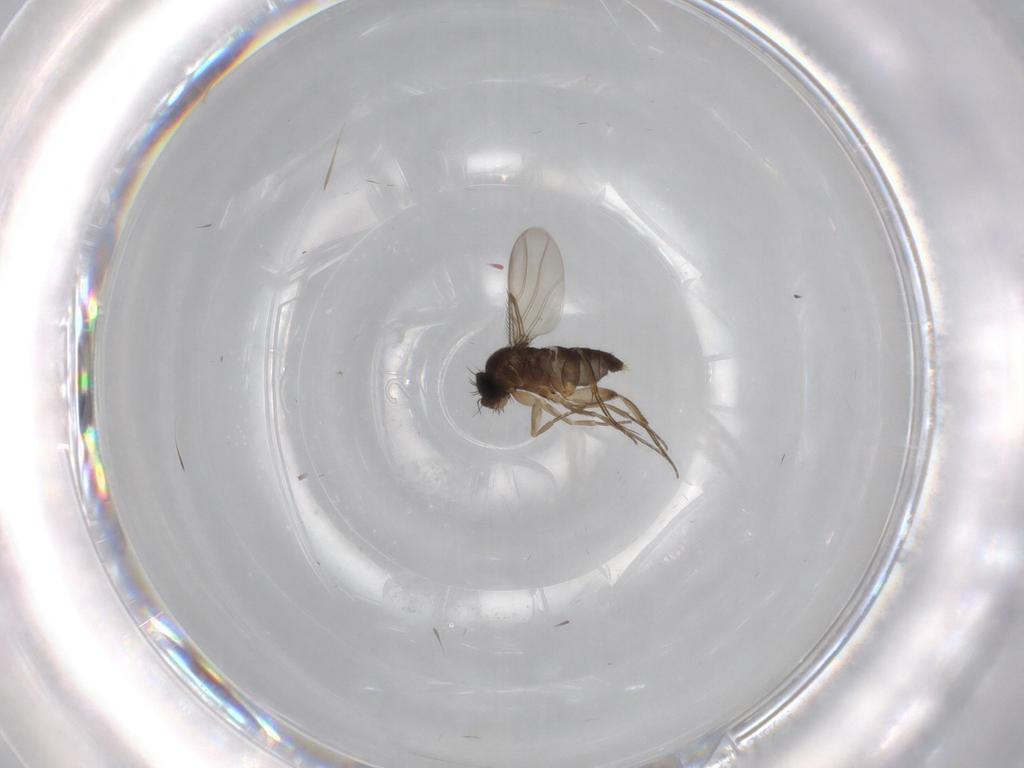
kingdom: Animalia
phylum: Arthropoda
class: Insecta
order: Diptera
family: Phoridae
